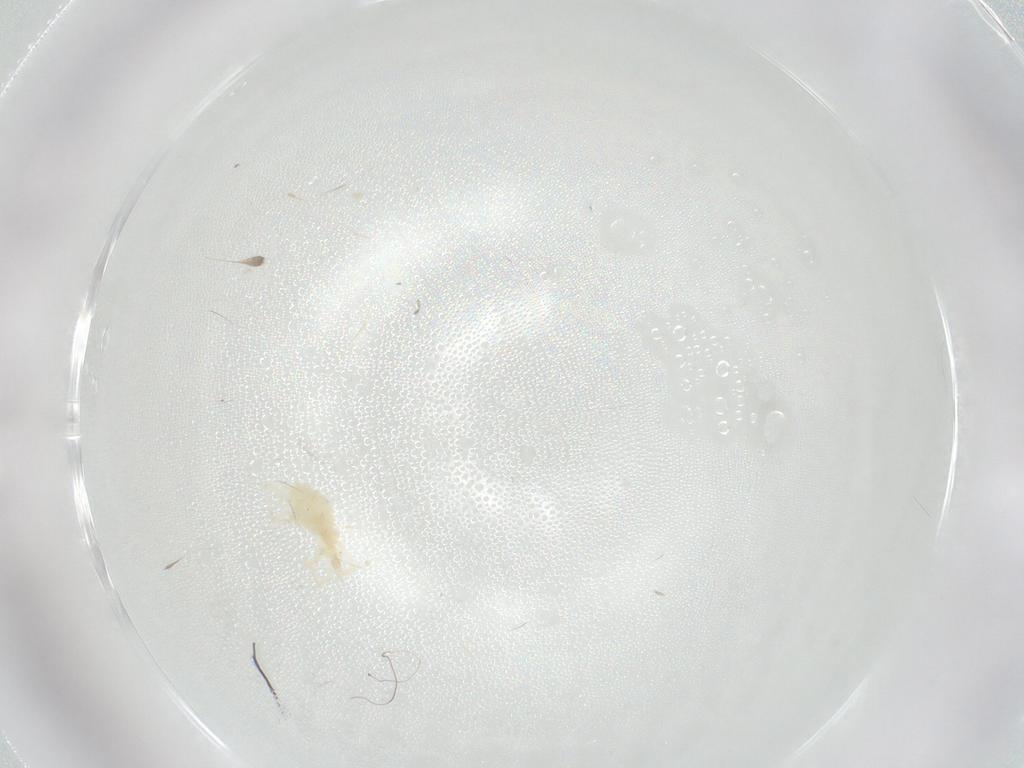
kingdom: Animalia
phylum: Arthropoda
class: Arachnida
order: Trombidiformes
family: Erythraeidae
